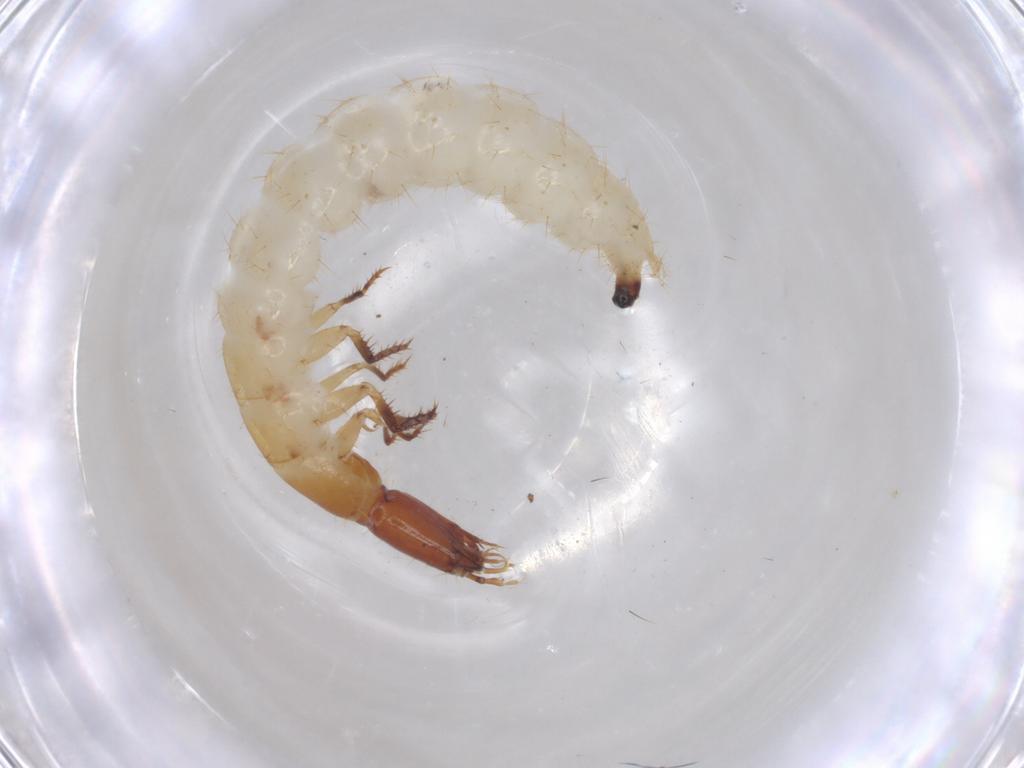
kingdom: Animalia
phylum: Arthropoda
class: Insecta
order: Coleoptera
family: Staphylinidae
